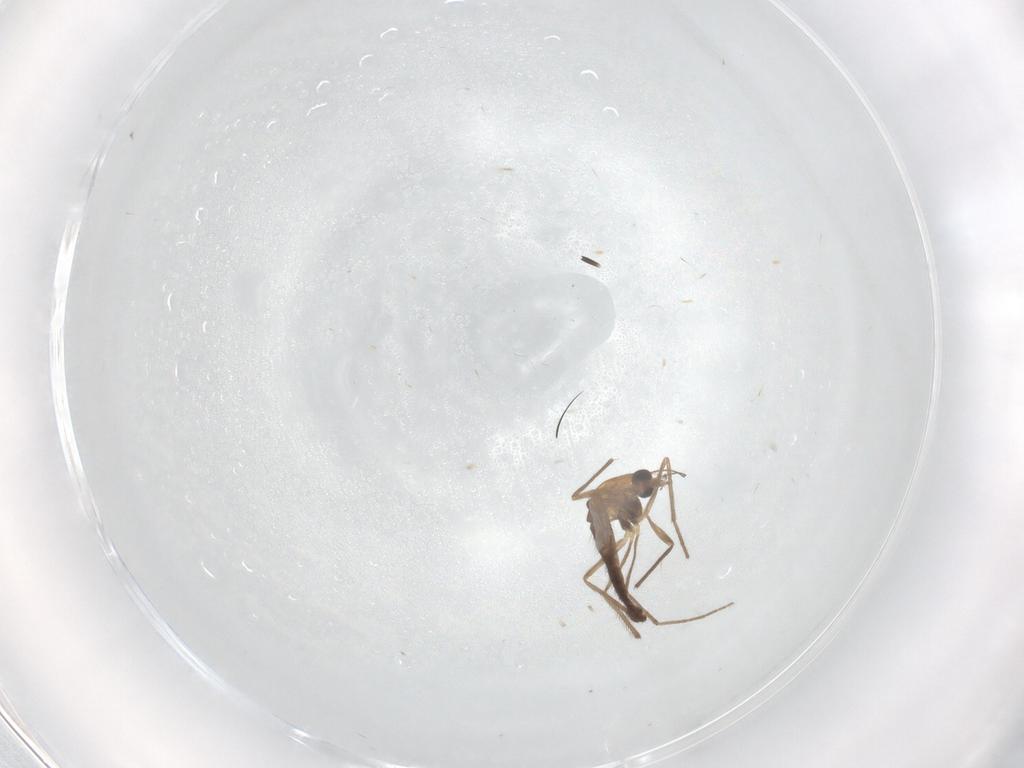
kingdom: Animalia
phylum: Arthropoda
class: Insecta
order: Diptera
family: Chironomidae
